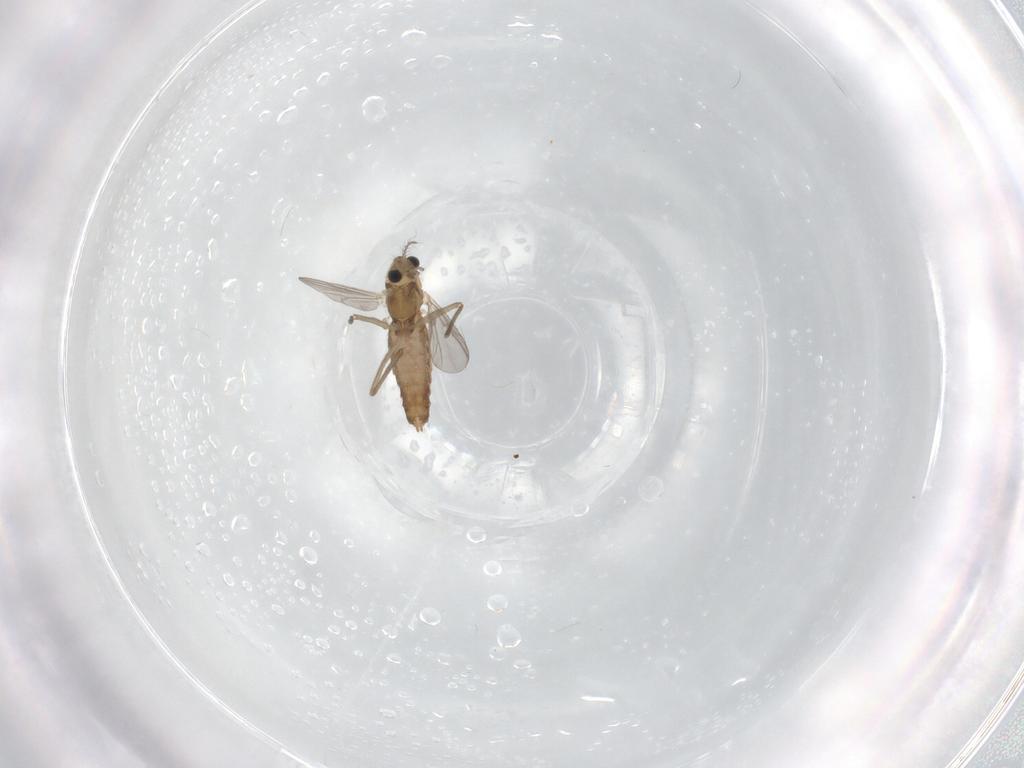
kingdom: Animalia
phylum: Arthropoda
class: Insecta
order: Diptera
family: Chironomidae
